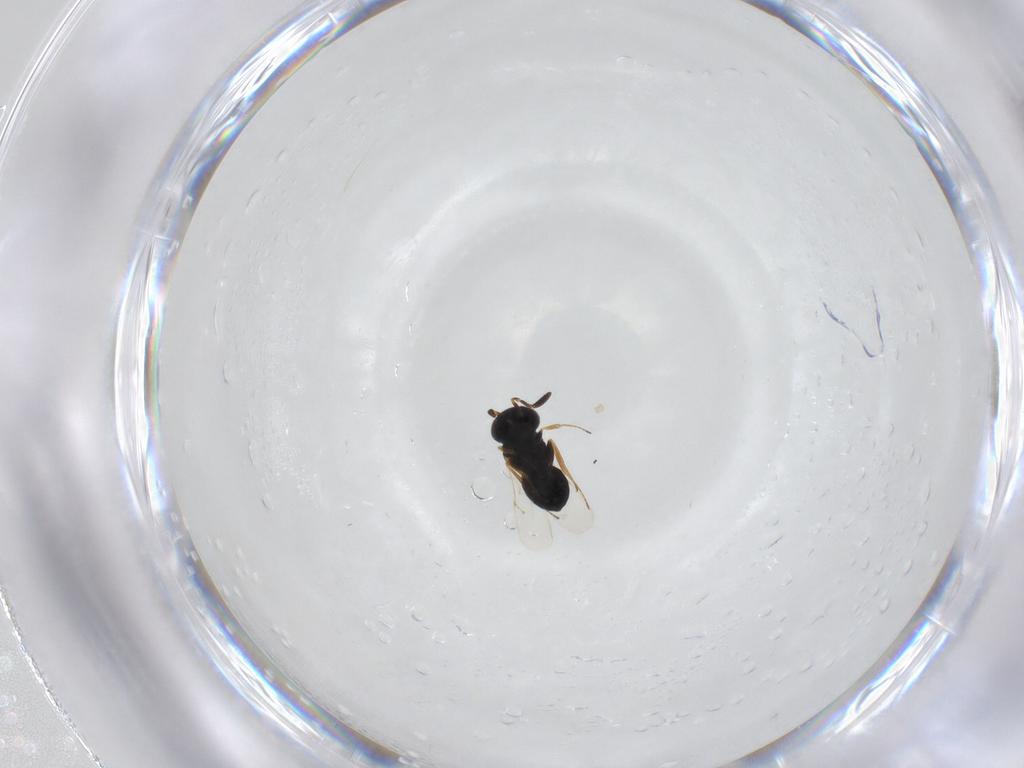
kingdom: Animalia
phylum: Arthropoda
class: Insecta
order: Hymenoptera
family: Scelionidae
